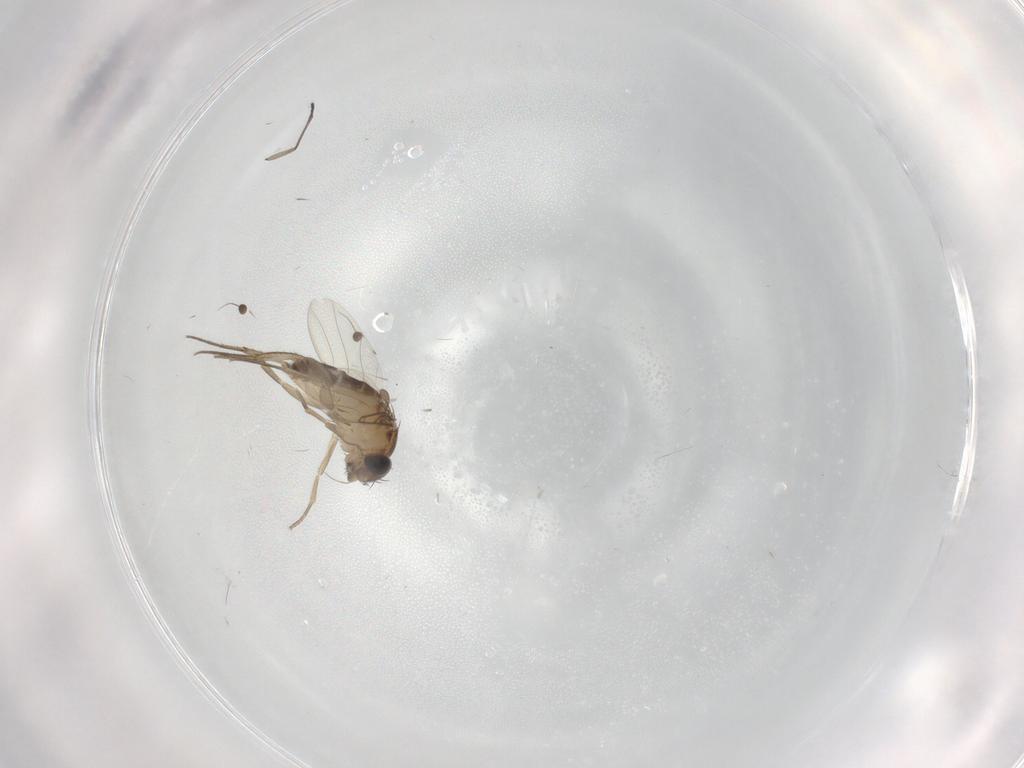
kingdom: Animalia
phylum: Arthropoda
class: Insecta
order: Diptera
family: Phoridae
